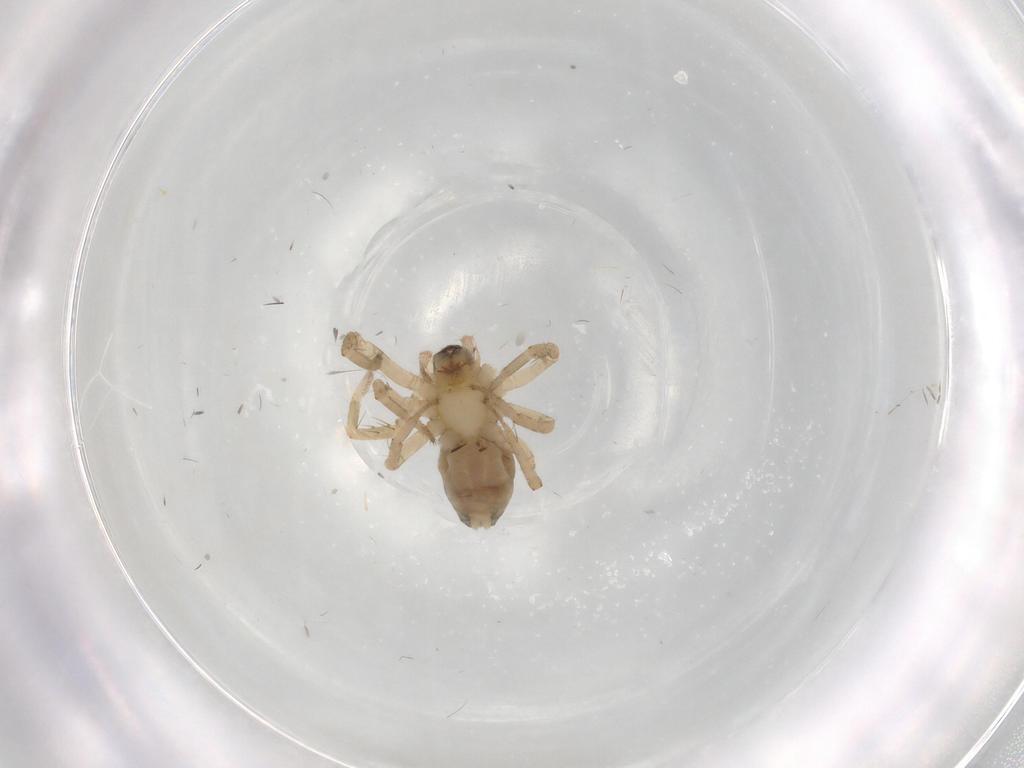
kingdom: Animalia
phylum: Arthropoda
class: Arachnida
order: Araneae
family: Anyphaenidae
